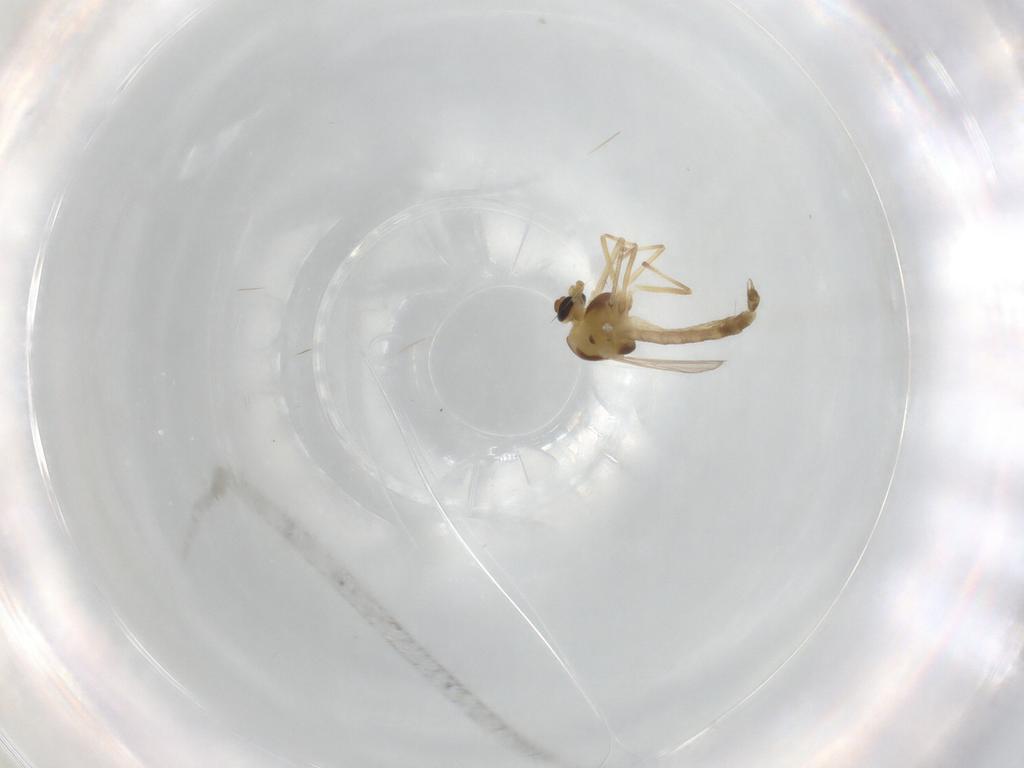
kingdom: Animalia
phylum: Arthropoda
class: Insecta
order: Diptera
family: Chironomidae
